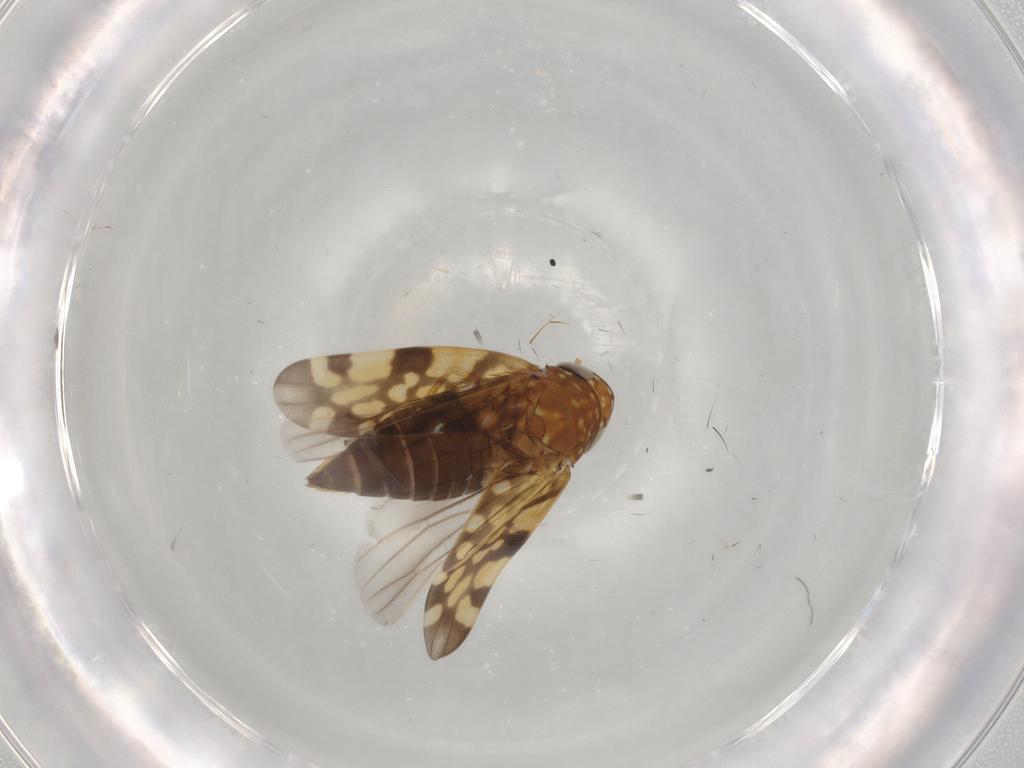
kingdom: Animalia
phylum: Arthropoda
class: Insecta
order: Hemiptera
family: Cicadellidae
